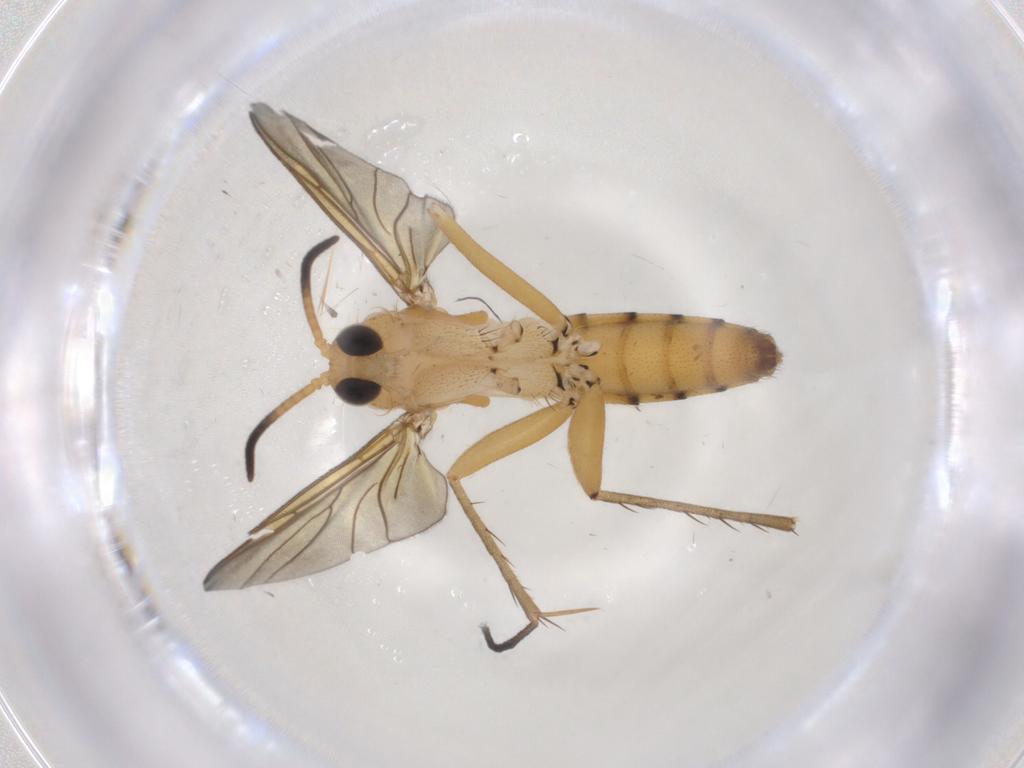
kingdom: Animalia
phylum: Arthropoda
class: Insecta
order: Diptera
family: Mycetophilidae
